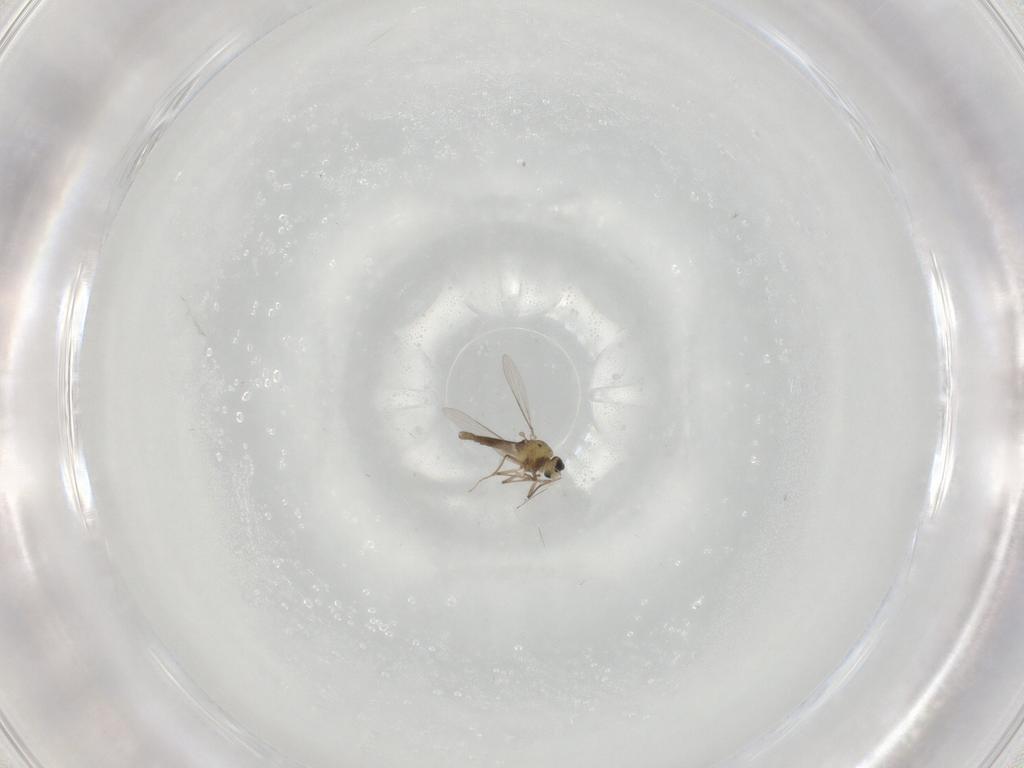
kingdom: Animalia
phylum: Arthropoda
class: Insecta
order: Diptera
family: Chironomidae
